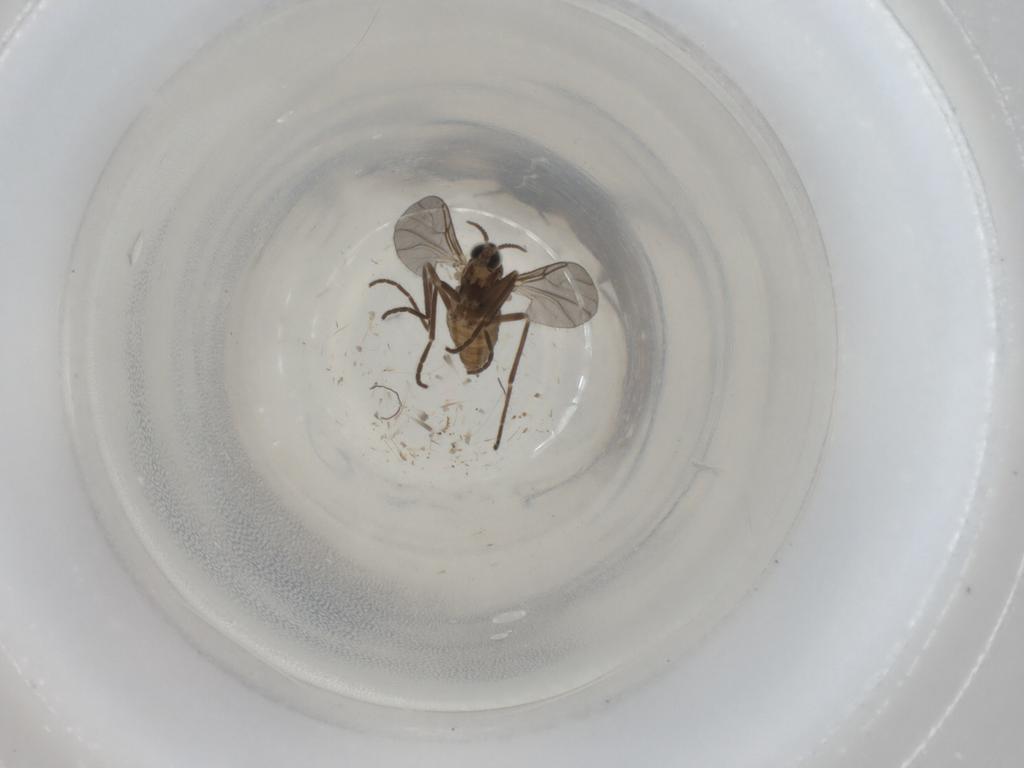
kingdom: Animalia
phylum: Arthropoda
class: Insecta
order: Diptera
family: Cecidomyiidae
